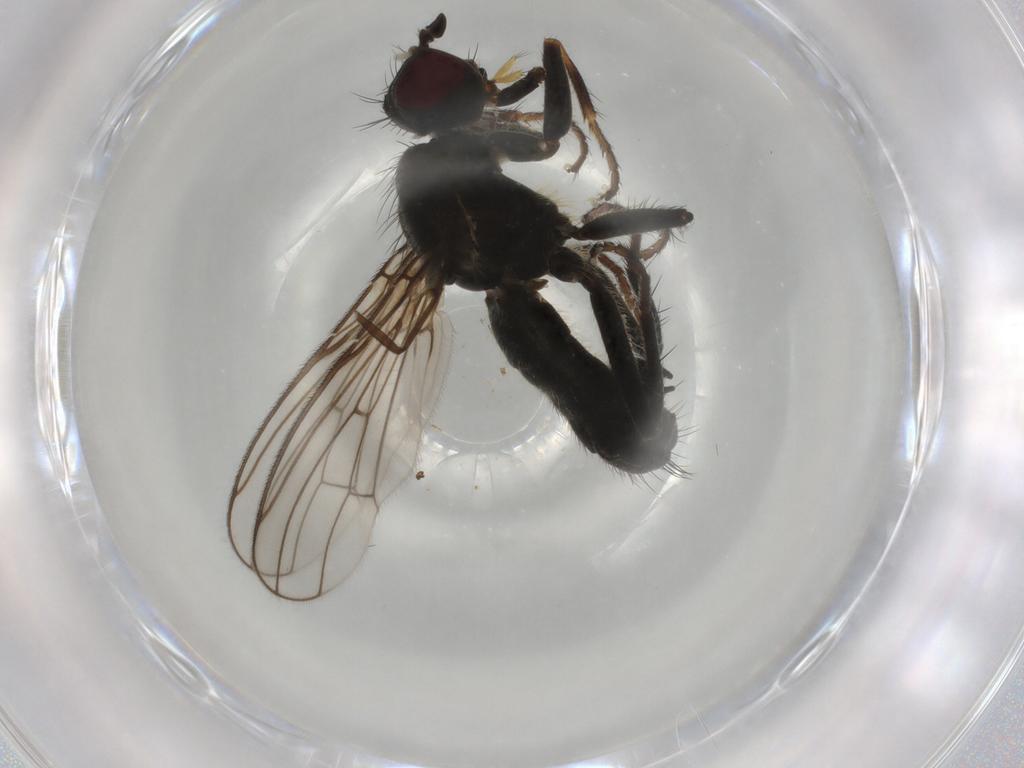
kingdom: Animalia
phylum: Arthropoda
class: Insecta
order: Diptera
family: Scathophagidae
